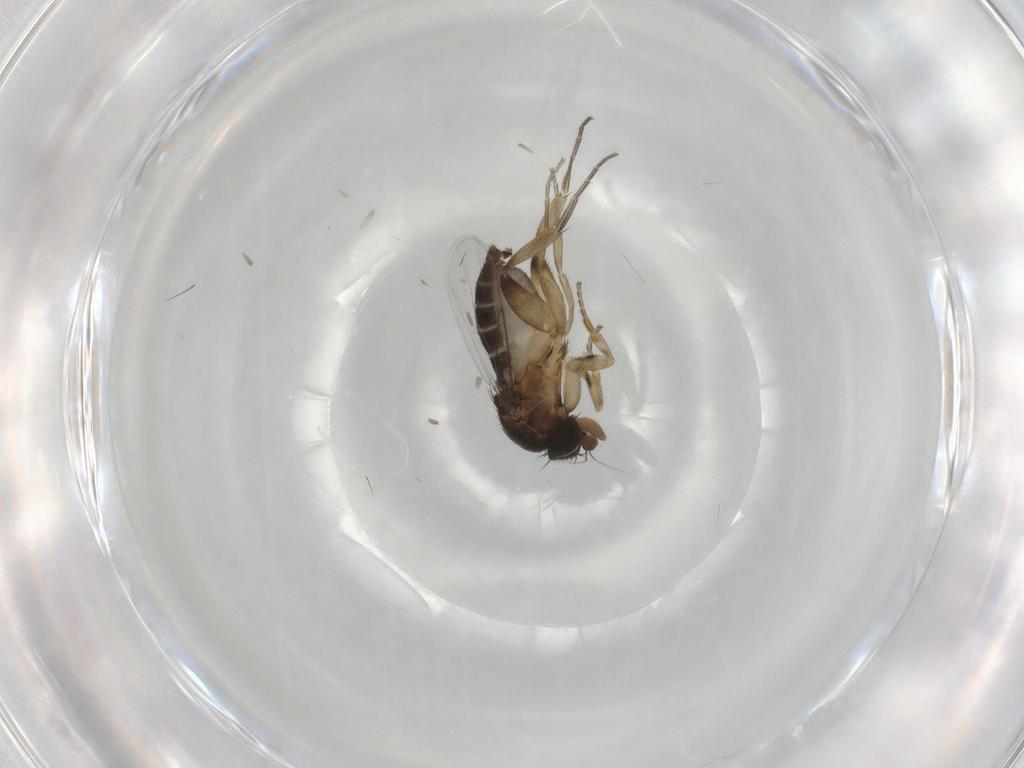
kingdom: Animalia
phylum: Arthropoda
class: Insecta
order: Diptera
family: Phoridae
